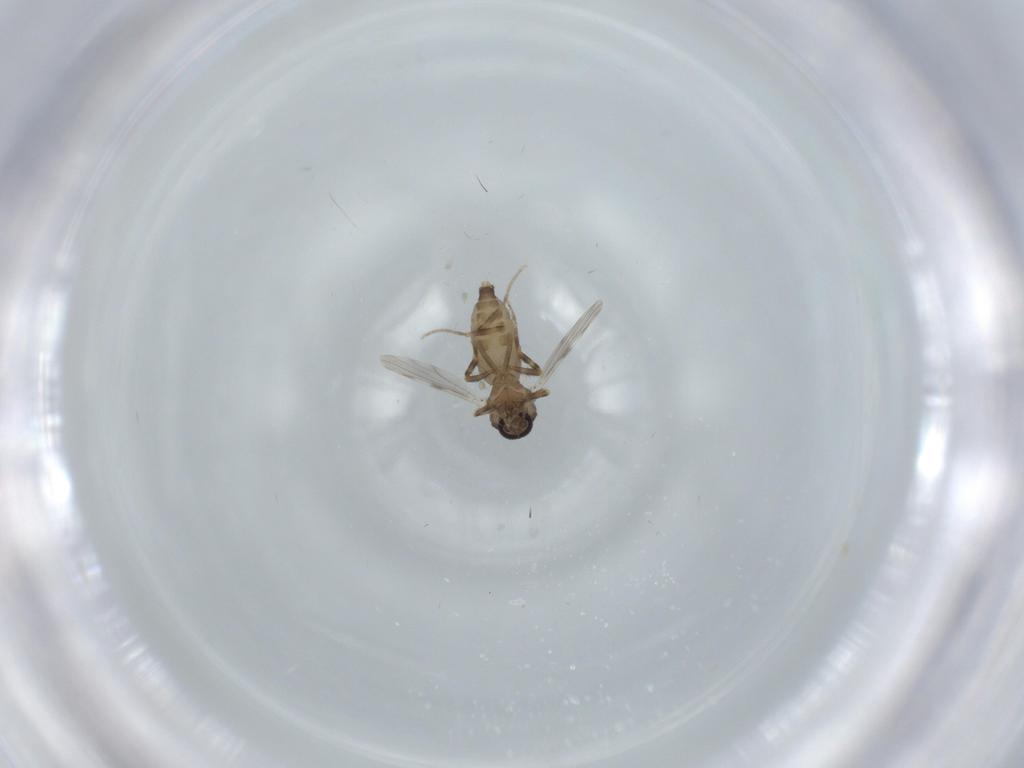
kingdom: Animalia
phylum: Arthropoda
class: Insecta
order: Diptera
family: Ceratopogonidae
